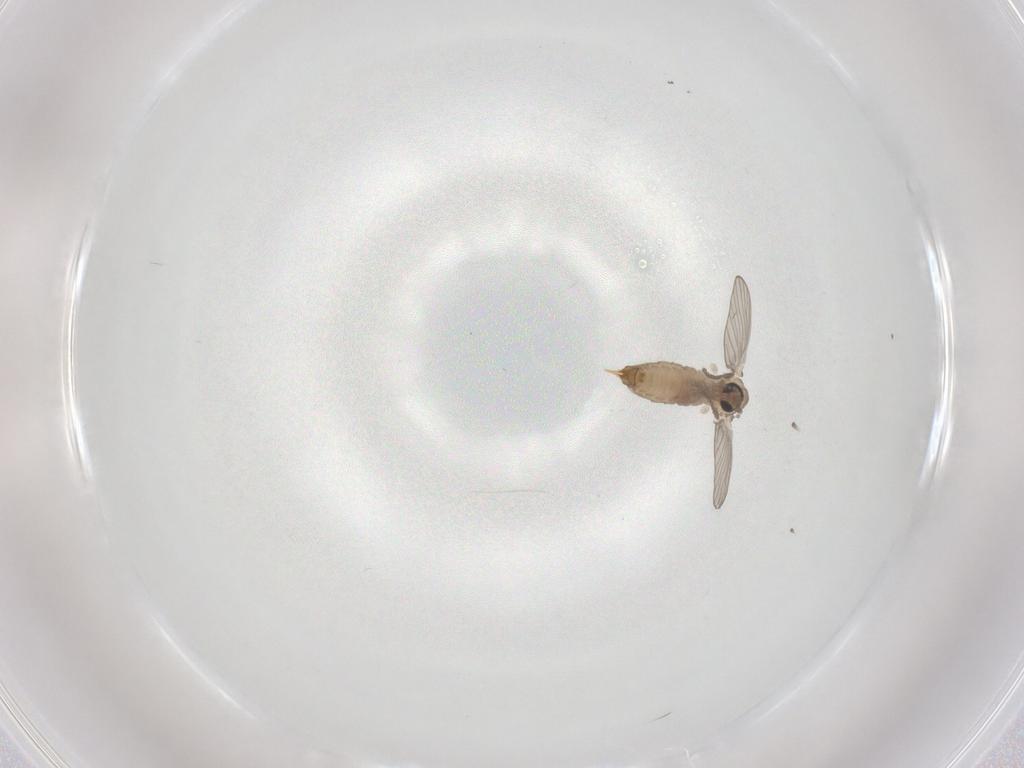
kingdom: Animalia
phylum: Arthropoda
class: Insecta
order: Diptera
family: Psychodidae
